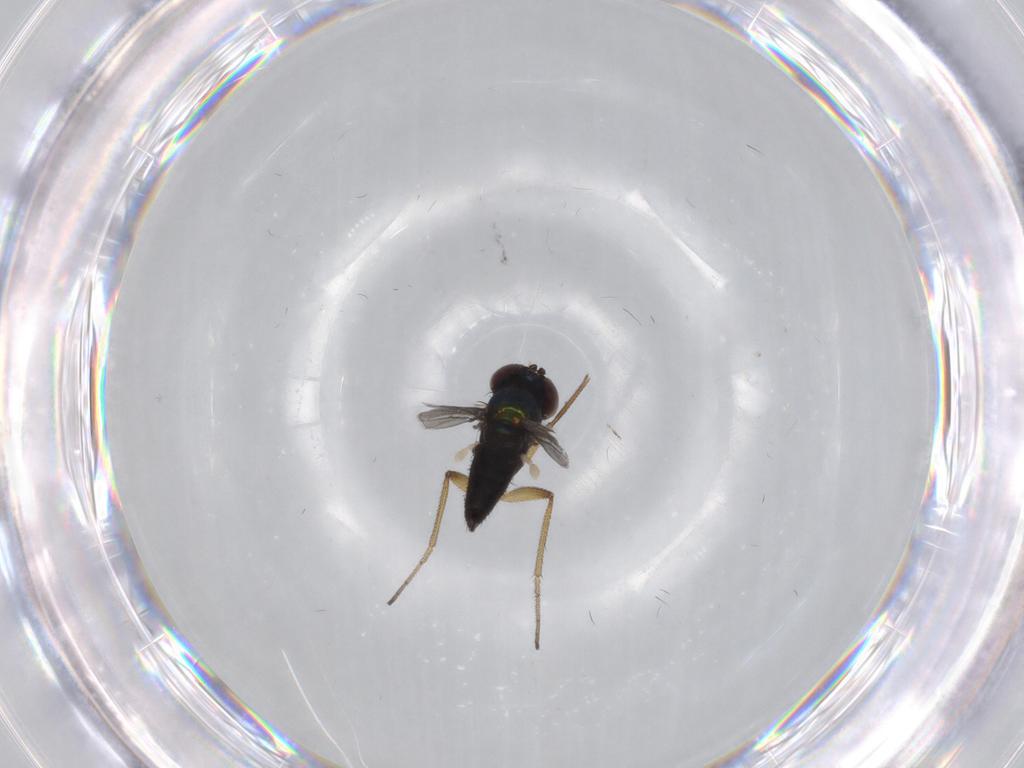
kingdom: Animalia
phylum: Arthropoda
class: Insecta
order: Diptera
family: Dolichopodidae
